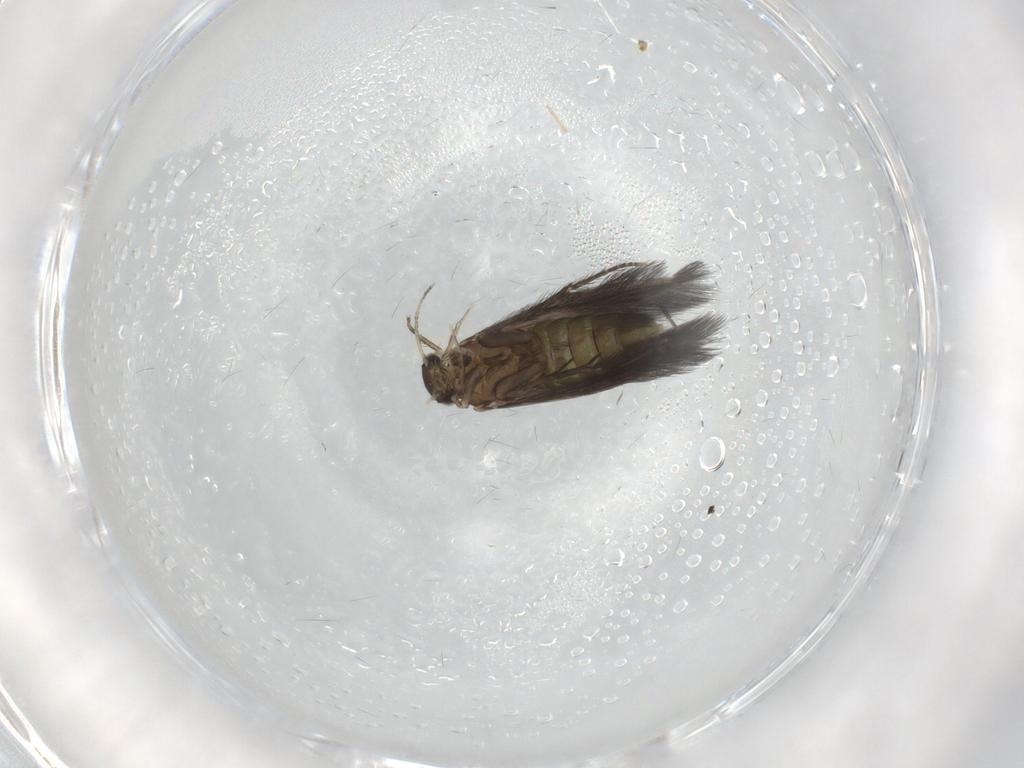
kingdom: Animalia
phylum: Arthropoda
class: Insecta
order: Trichoptera
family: Hydroptilidae
